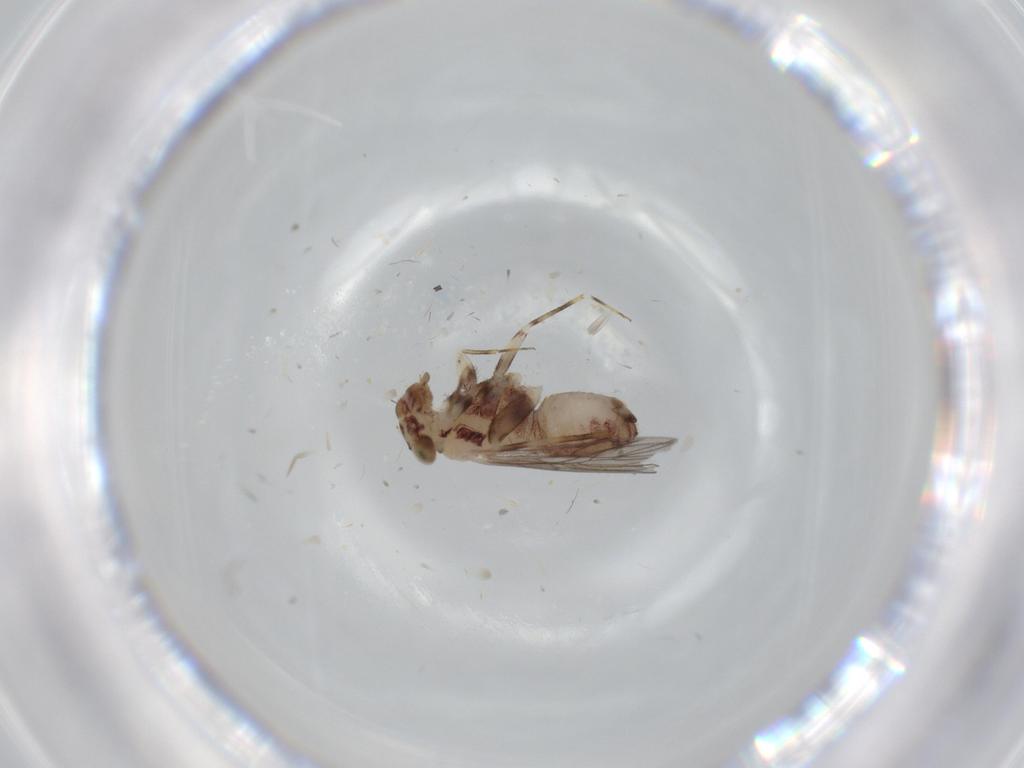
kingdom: Animalia
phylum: Arthropoda
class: Insecta
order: Psocodea
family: Lepidopsocidae
